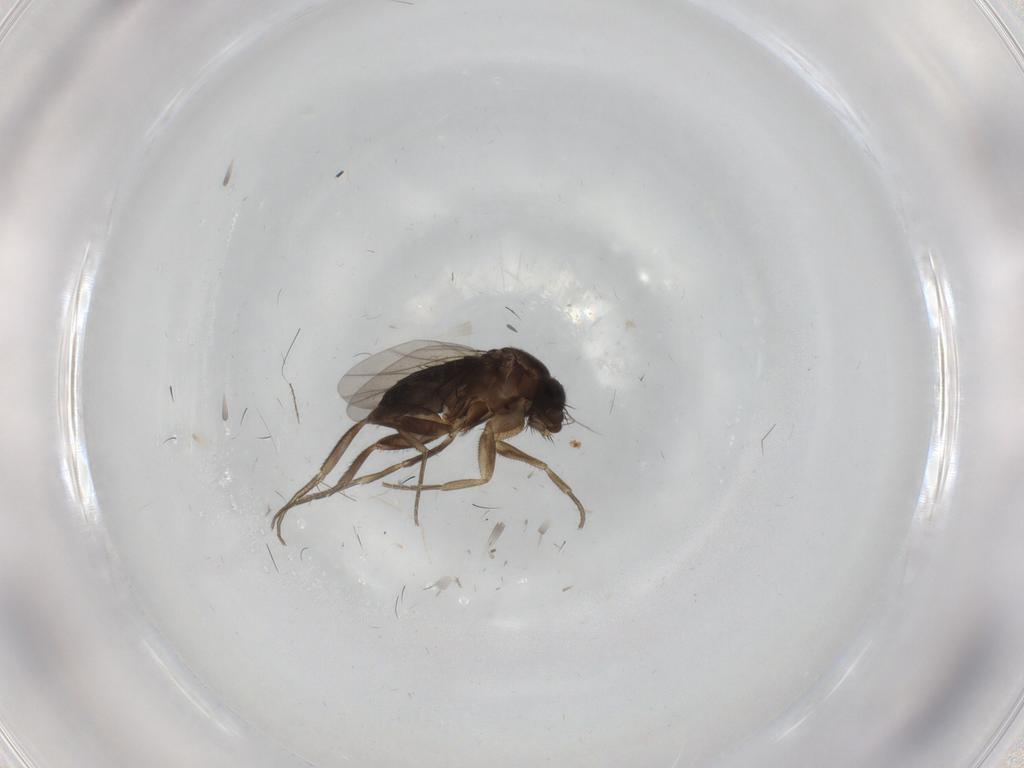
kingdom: Animalia
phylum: Arthropoda
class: Insecta
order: Diptera
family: Phoridae
